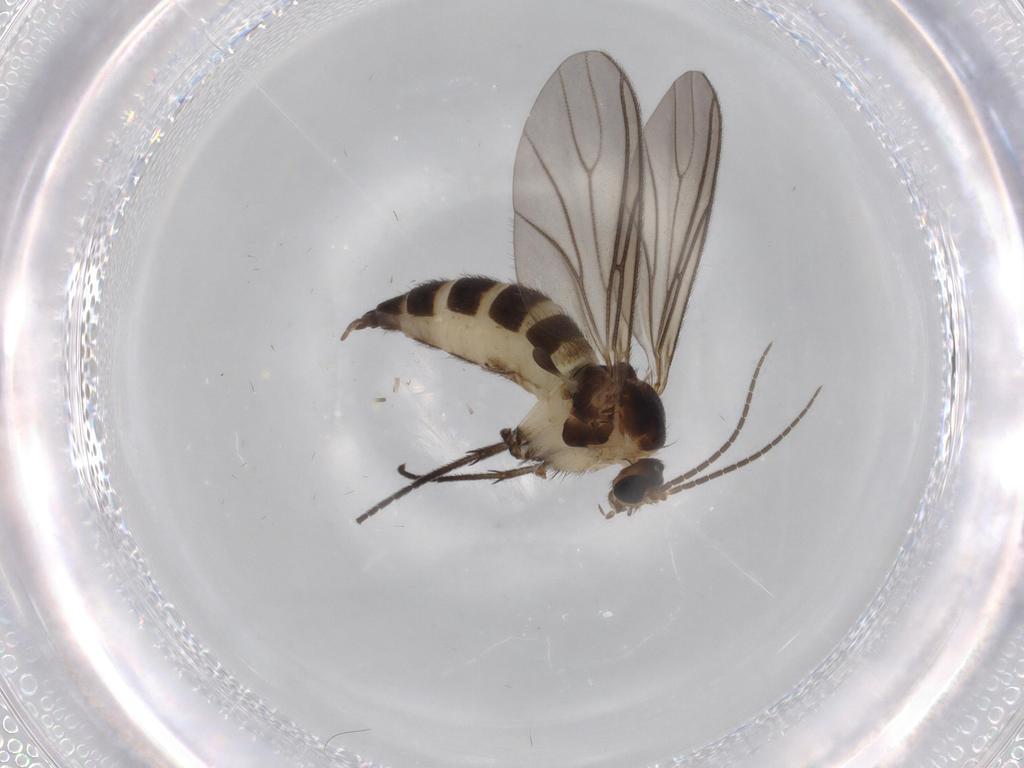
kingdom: Animalia
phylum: Arthropoda
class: Insecta
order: Diptera
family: Sciaridae
